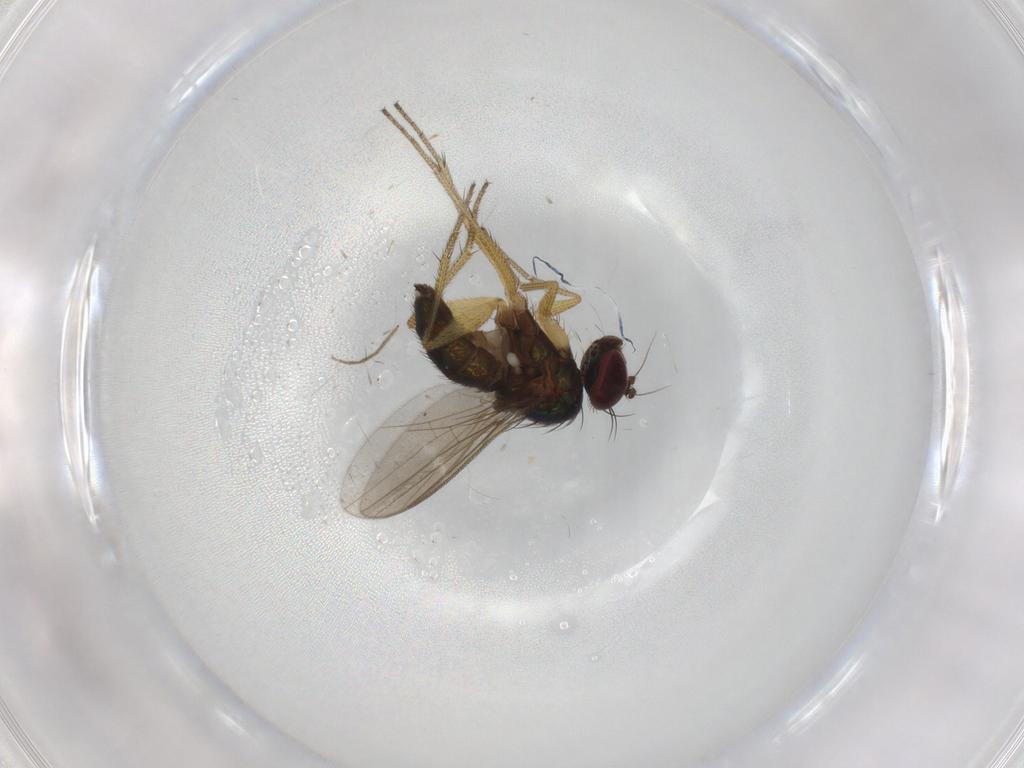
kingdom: Animalia
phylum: Arthropoda
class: Insecta
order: Diptera
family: Chironomidae
